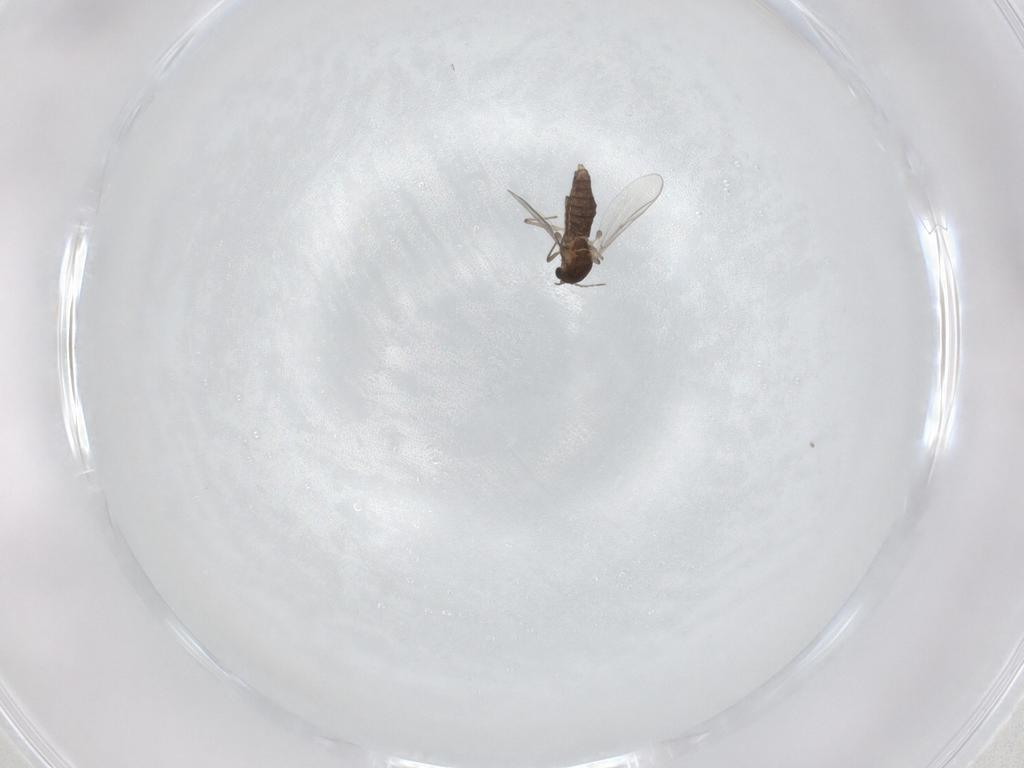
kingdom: Animalia
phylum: Arthropoda
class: Insecta
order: Diptera
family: Chironomidae
